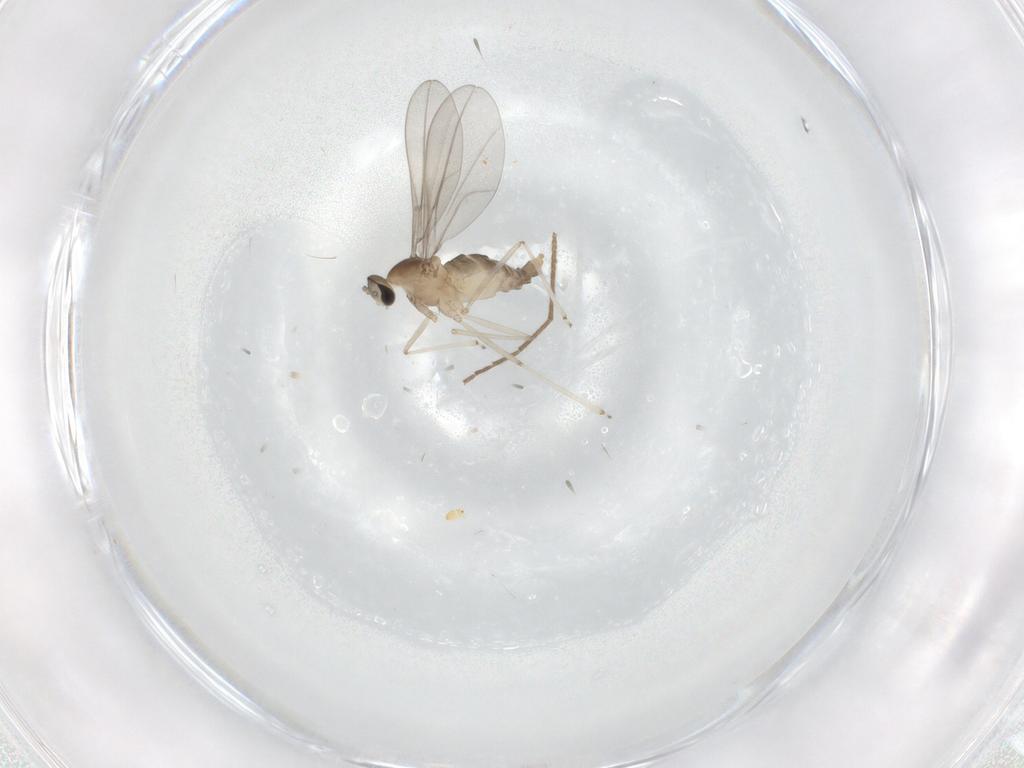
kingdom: Animalia
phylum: Arthropoda
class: Insecta
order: Diptera
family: Cecidomyiidae
